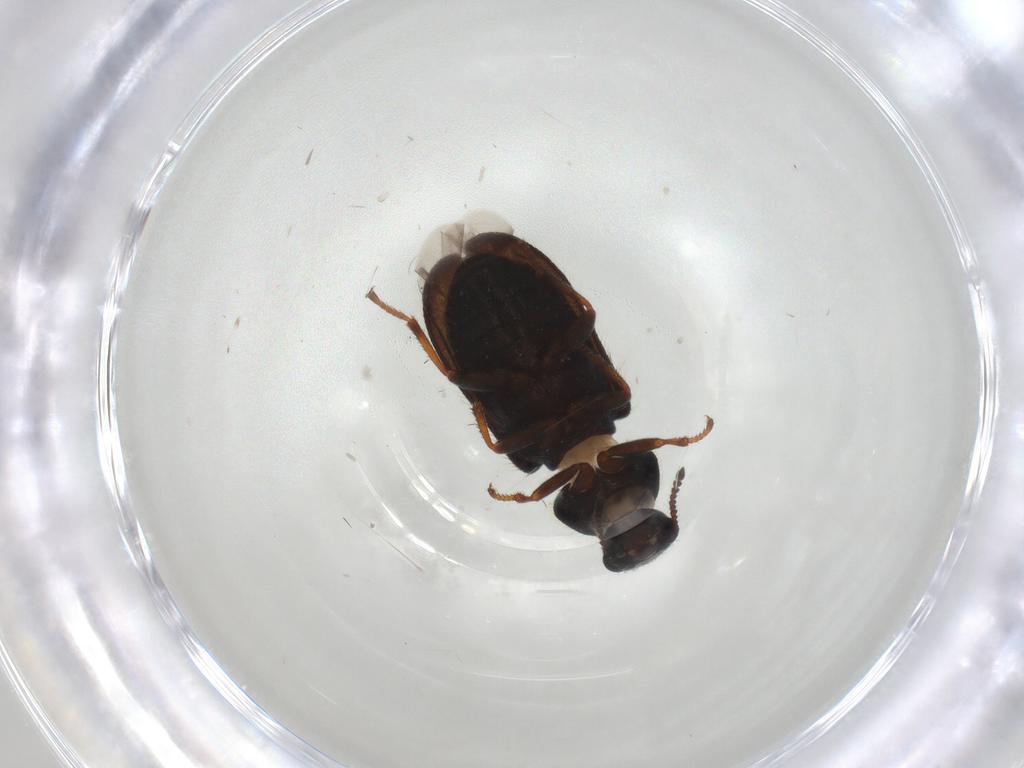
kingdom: Animalia
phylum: Arthropoda
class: Insecta
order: Coleoptera
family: Melyridae
